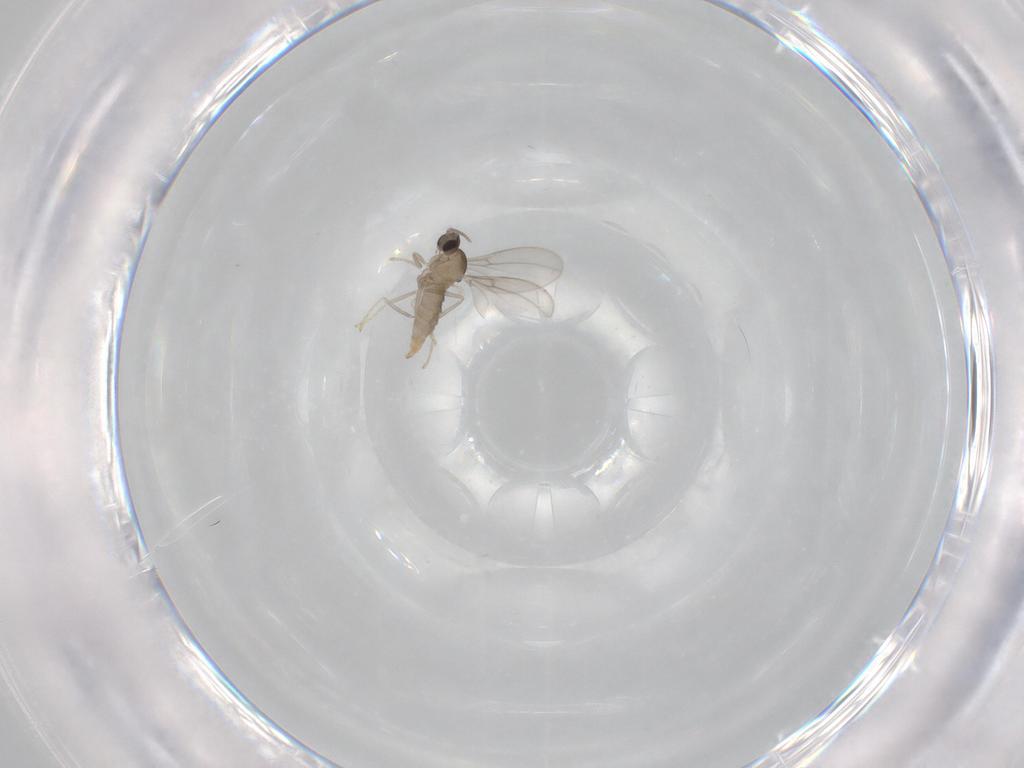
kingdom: Animalia
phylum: Arthropoda
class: Insecta
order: Diptera
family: Cecidomyiidae
